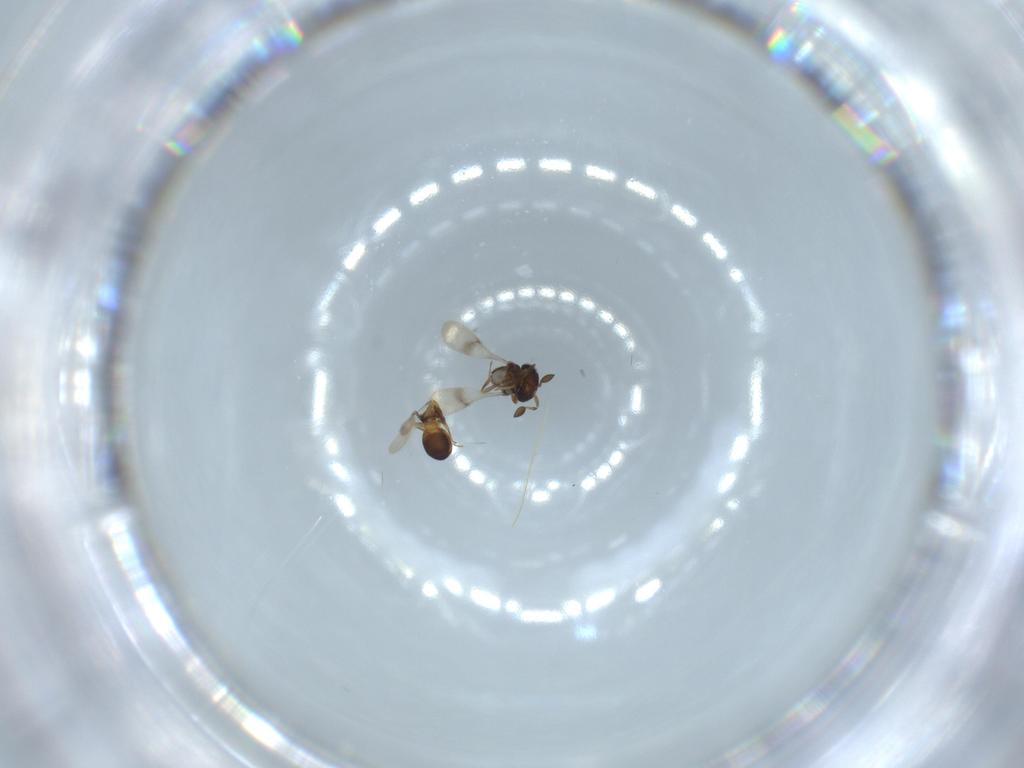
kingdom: Animalia
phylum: Arthropoda
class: Insecta
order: Hymenoptera
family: Scelionidae
